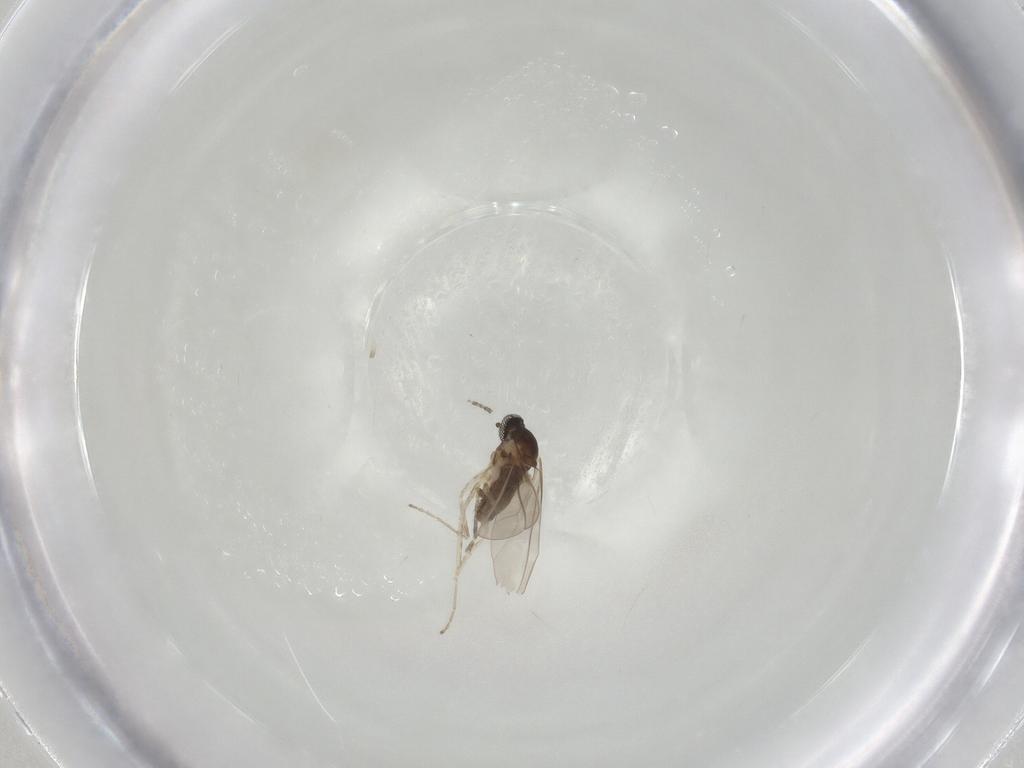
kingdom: Animalia
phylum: Arthropoda
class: Insecta
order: Diptera
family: Cecidomyiidae
